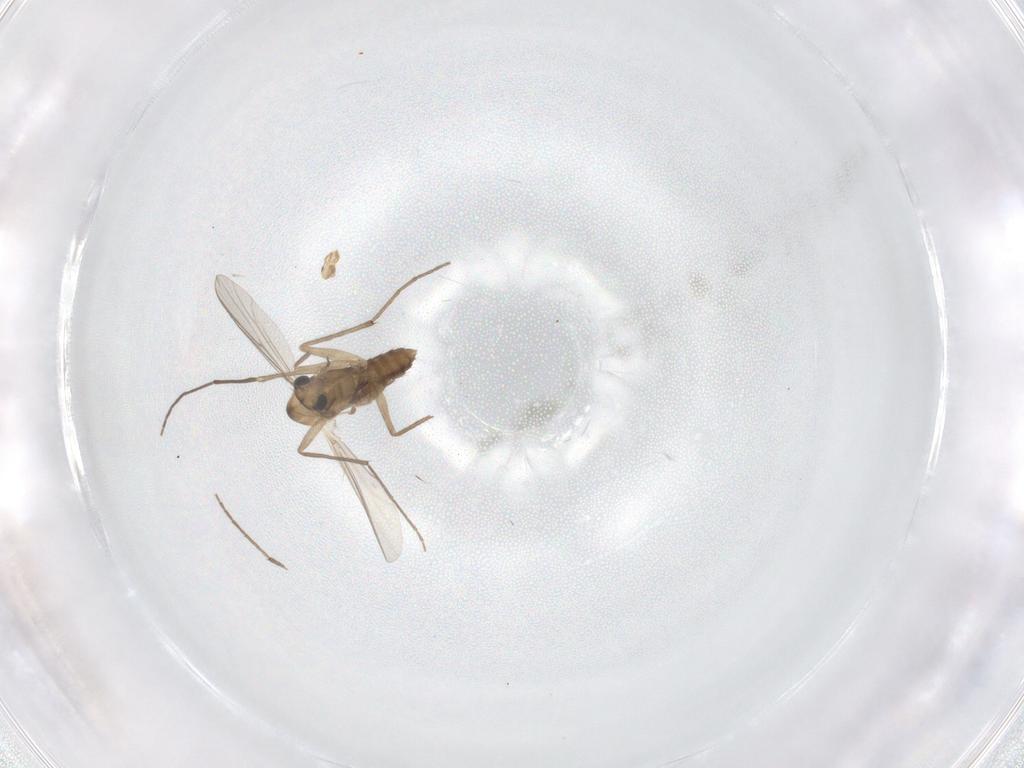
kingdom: Animalia
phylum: Arthropoda
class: Insecta
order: Diptera
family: Chironomidae
